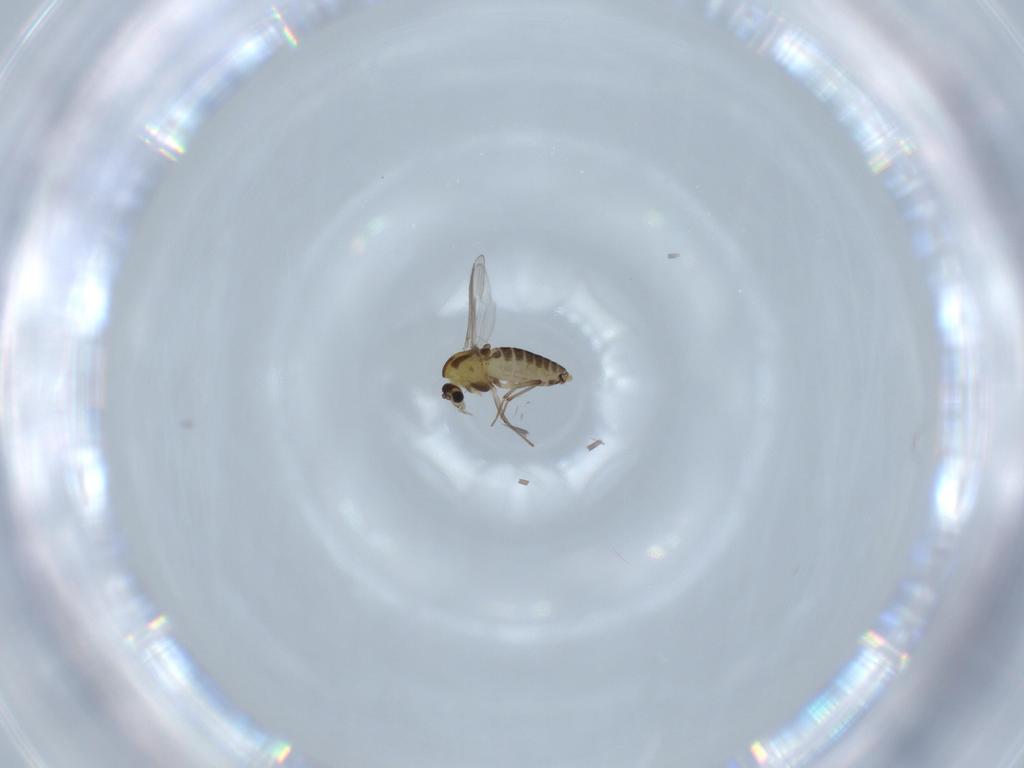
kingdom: Animalia
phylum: Arthropoda
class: Insecta
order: Diptera
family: Chironomidae
